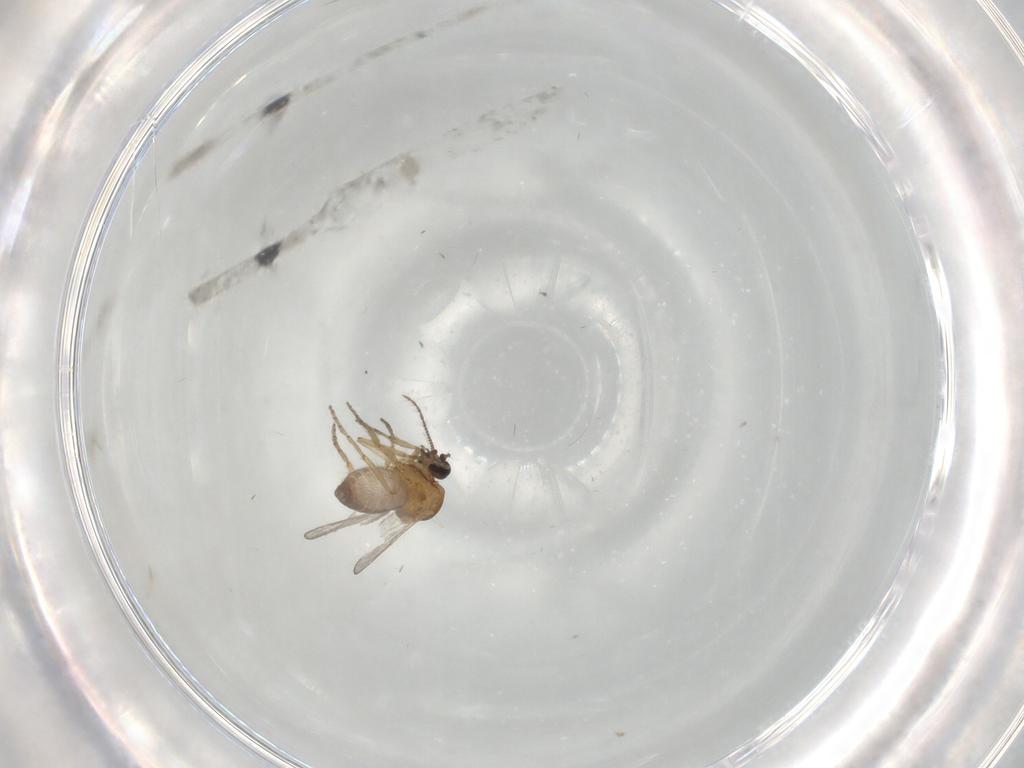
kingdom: Animalia
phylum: Arthropoda
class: Insecta
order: Diptera
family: Ceratopogonidae
